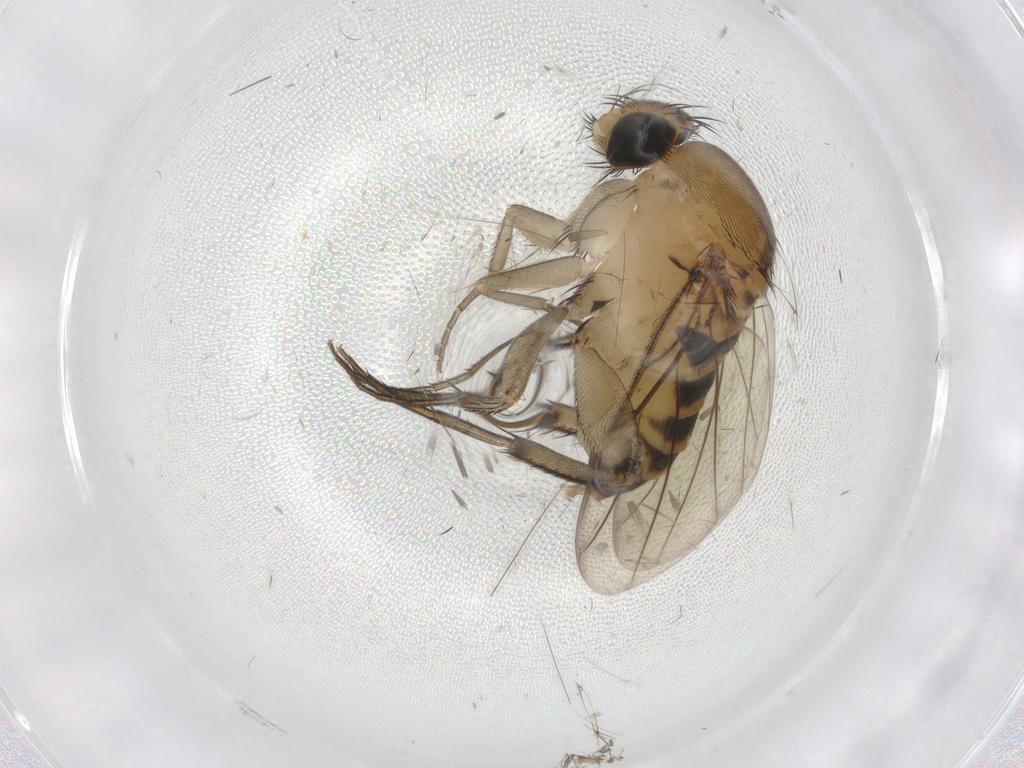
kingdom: Animalia
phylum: Arthropoda
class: Insecta
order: Diptera
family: Phoridae
